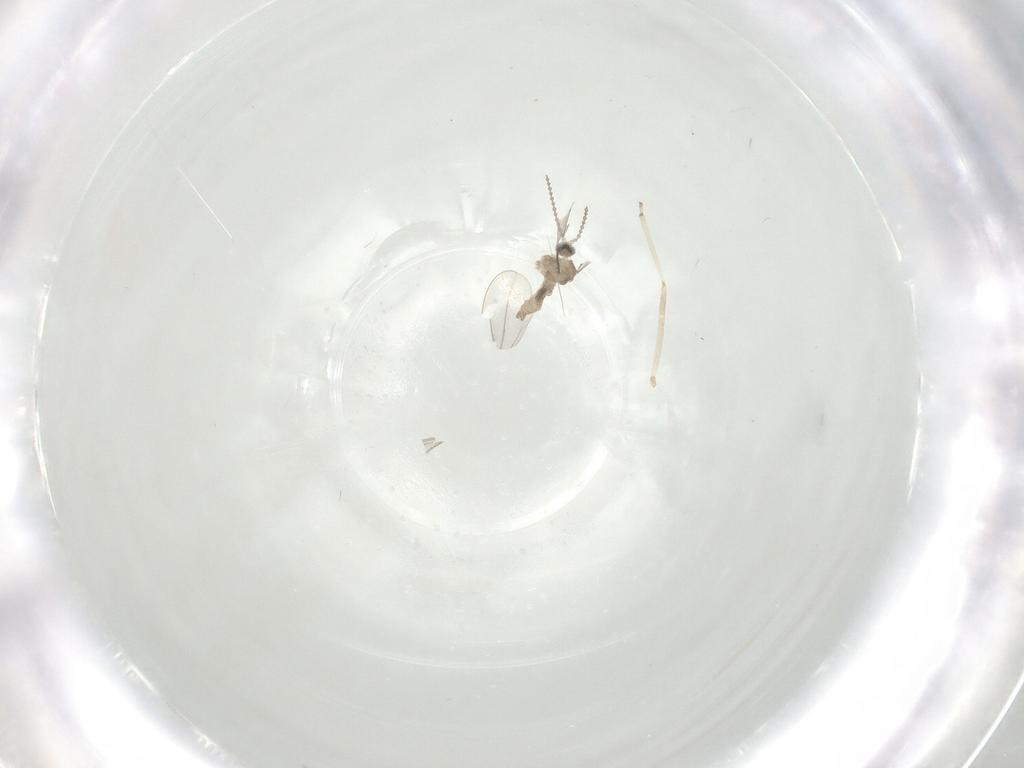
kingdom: Animalia
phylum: Arthropoda
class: Insecta
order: Diptera
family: Cecidomyiidae
